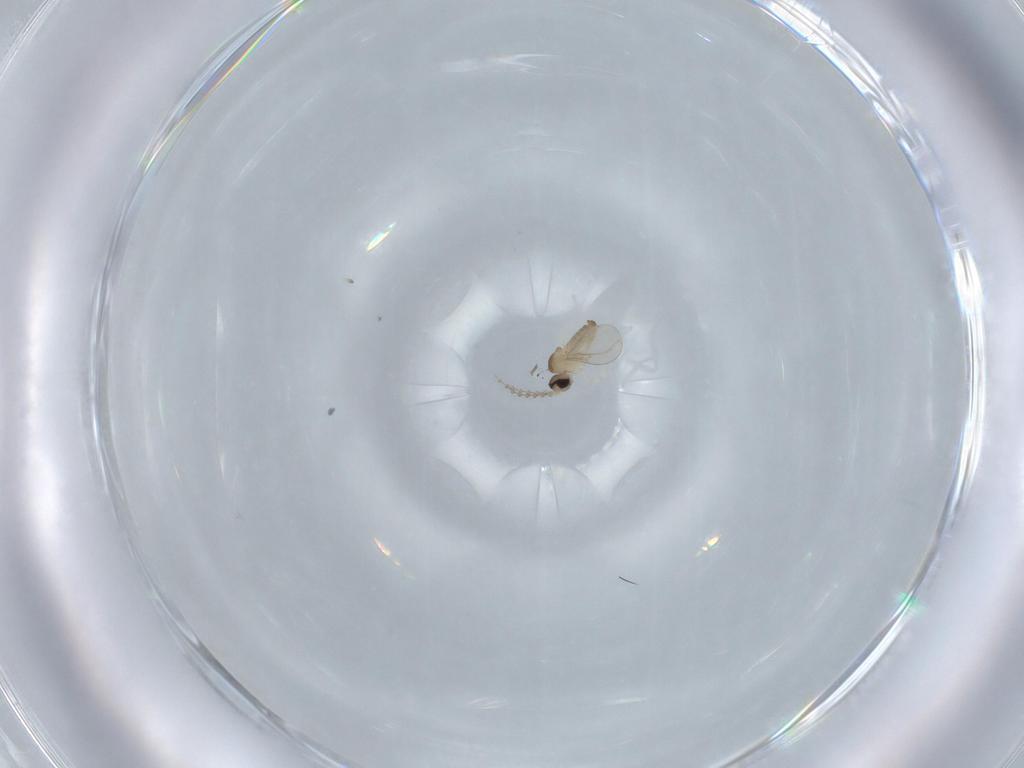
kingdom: Animalia
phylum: Arthropoda
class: Insecta
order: Diptera
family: Cecidomyiidae
